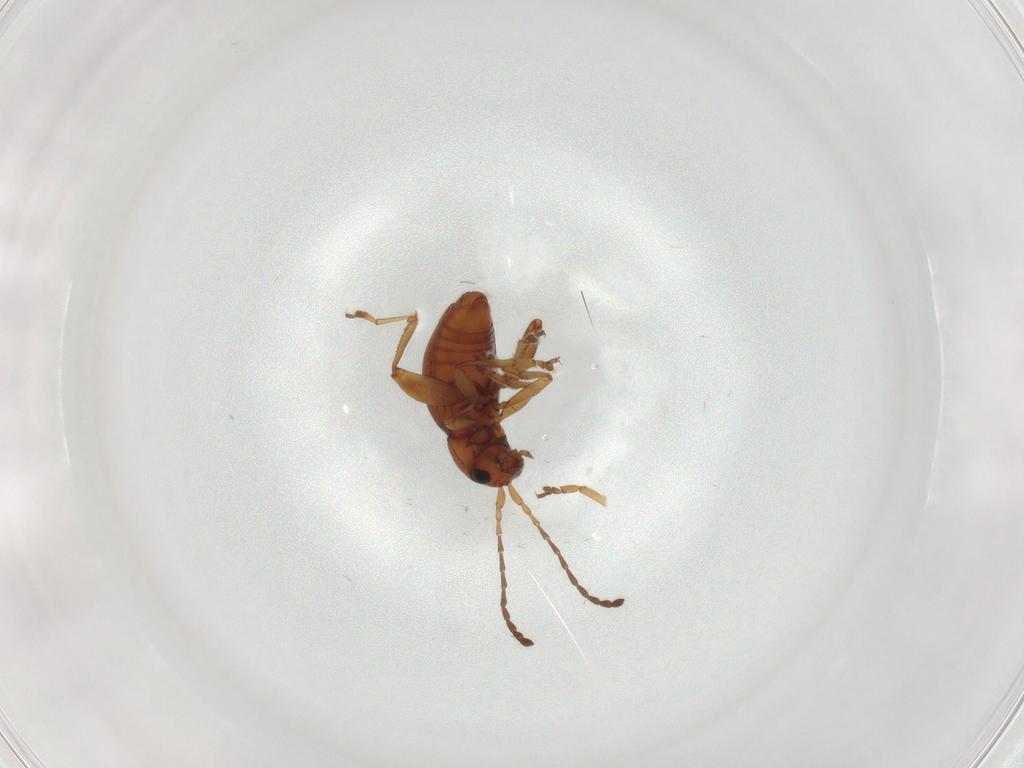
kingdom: Animalia
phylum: Arthropoda
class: Insecta
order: Coleoptera
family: Chrysomelidae
